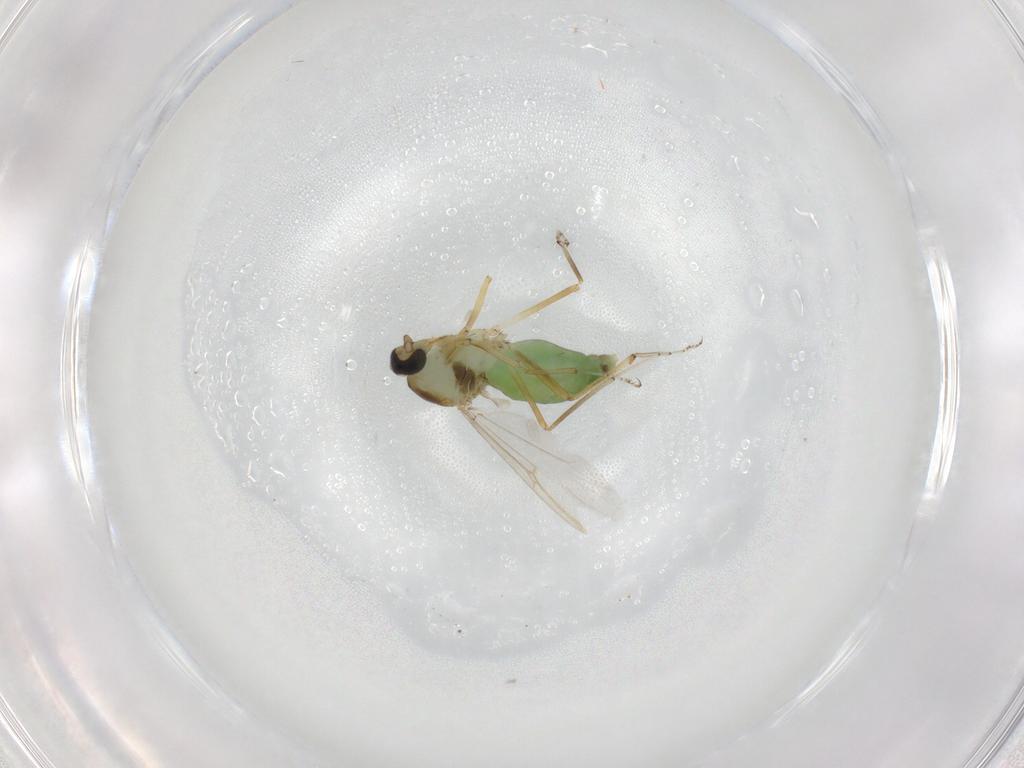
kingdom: Animalia
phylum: Arthropoda
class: Insecta
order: Diptera
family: Ceratopogonidae
